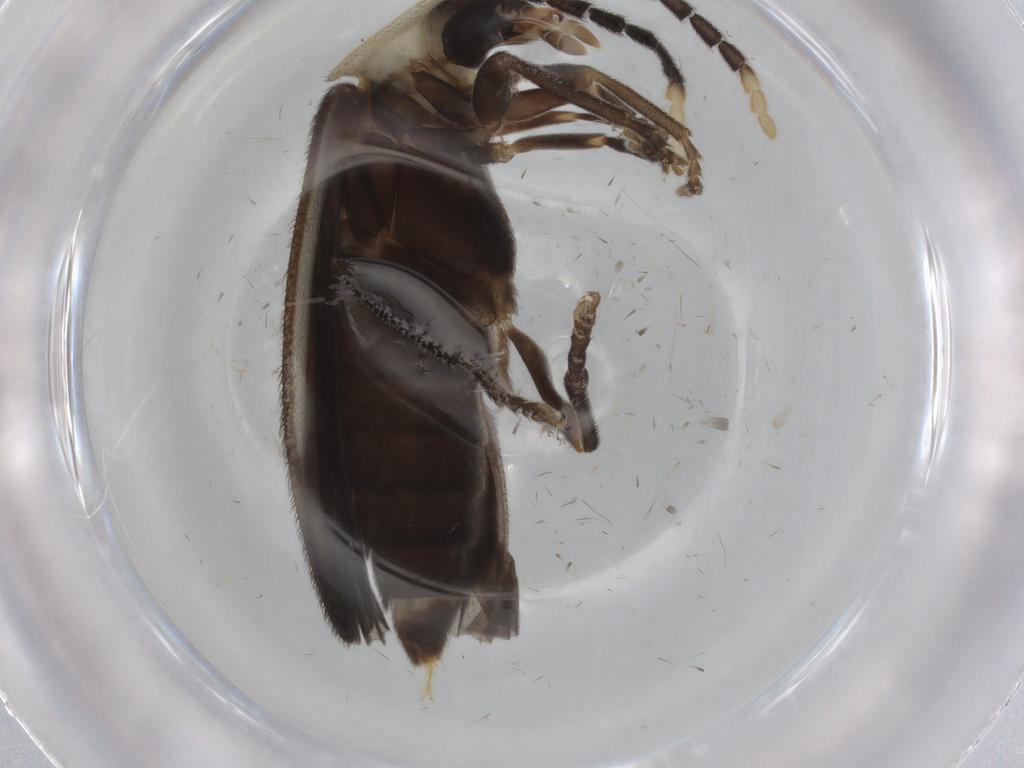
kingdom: Animalia
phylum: Arthropoda
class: Insecta
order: Coleoptera
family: Lampyridae
